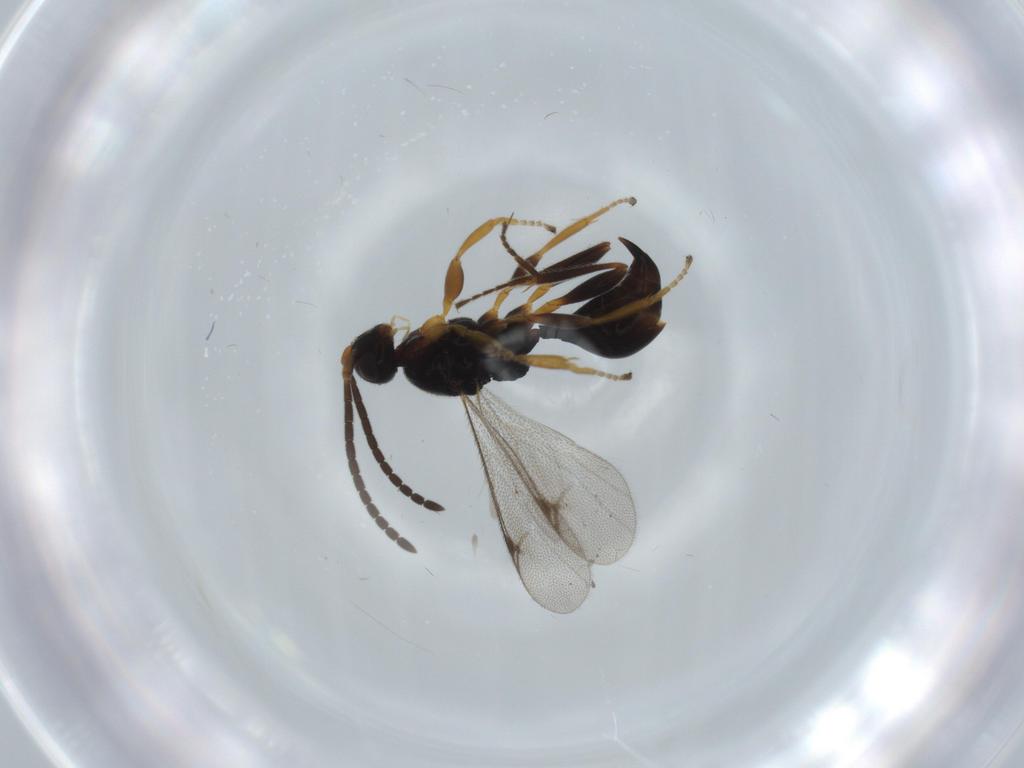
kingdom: Animalia
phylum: Arthropoda
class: Insecta
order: Hymenoptera
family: Proctotrupidae
